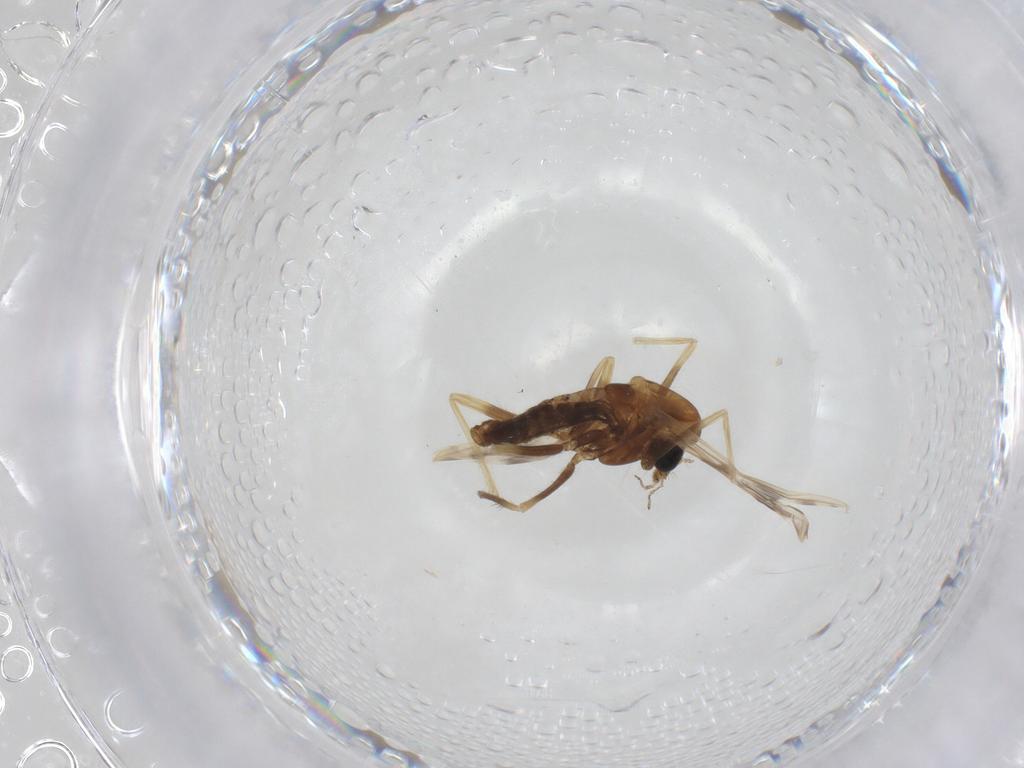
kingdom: Animalia
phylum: Arthropoda
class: Insecta
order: Diptera
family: Chironomidae
